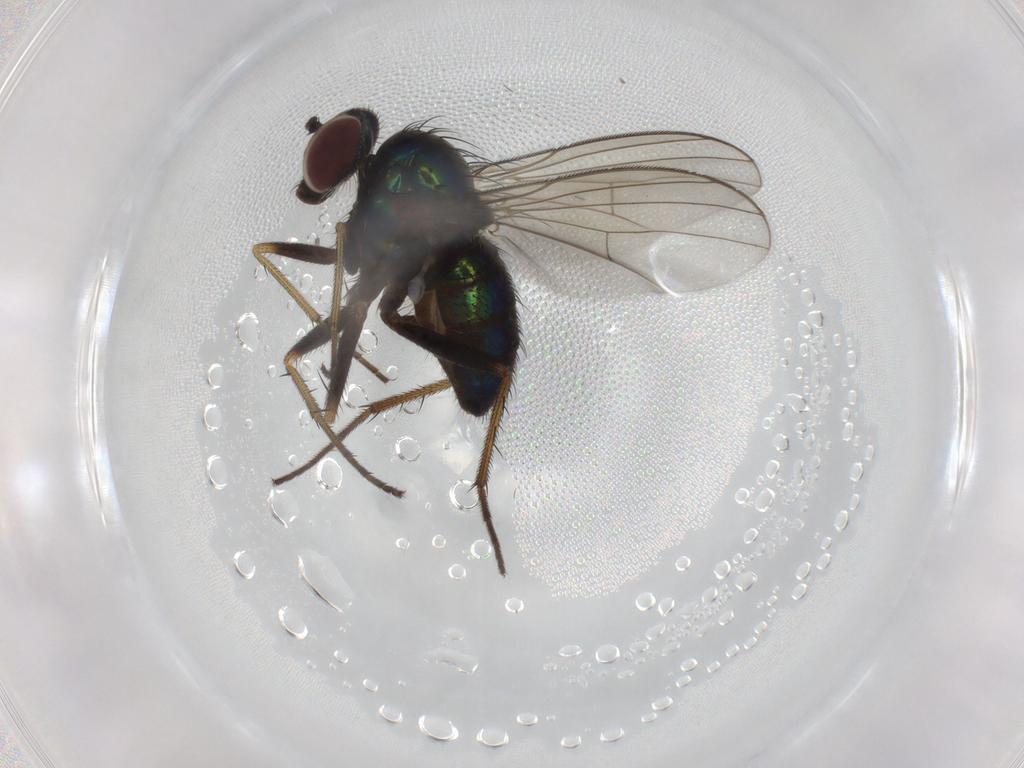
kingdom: Animalia
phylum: Arthropoda
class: Insecta
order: Diptera
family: Dolichopodidae
